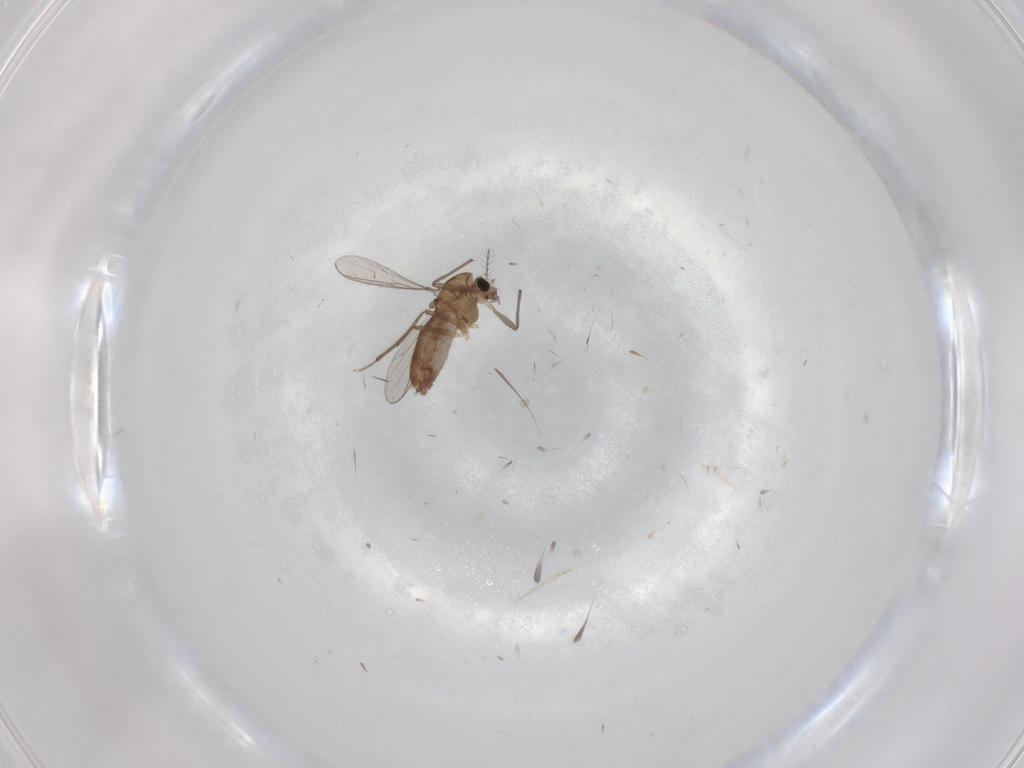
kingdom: Animalia
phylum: Arthropoda
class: Insecta
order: Diptera
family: Chironomidae
